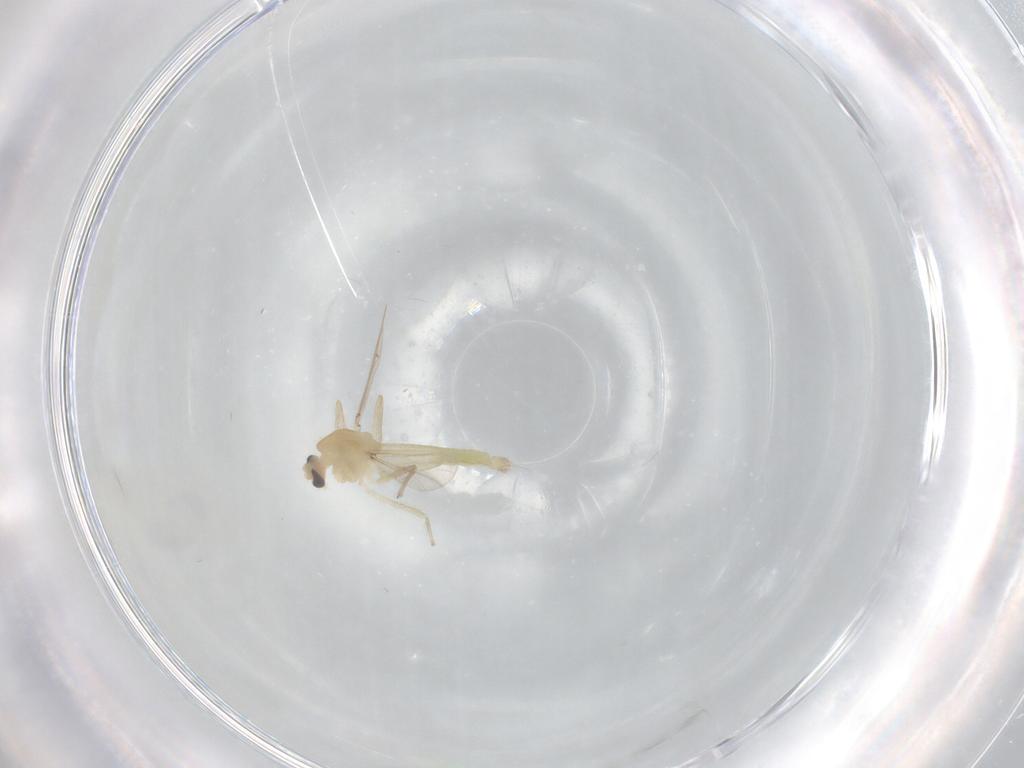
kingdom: Animalia
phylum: Arthropoda
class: Insecta
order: Diptera
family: Chironomidae
